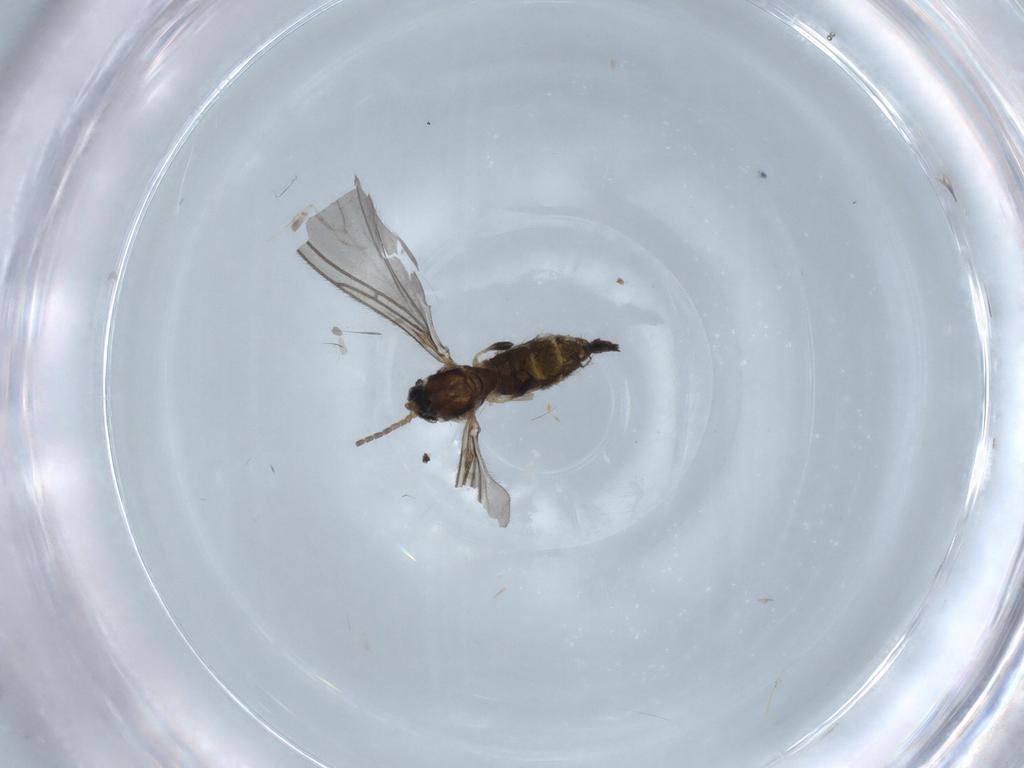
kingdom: Animalia
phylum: Arthropoda
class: Insecta
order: Diptera
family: Sciaridae
